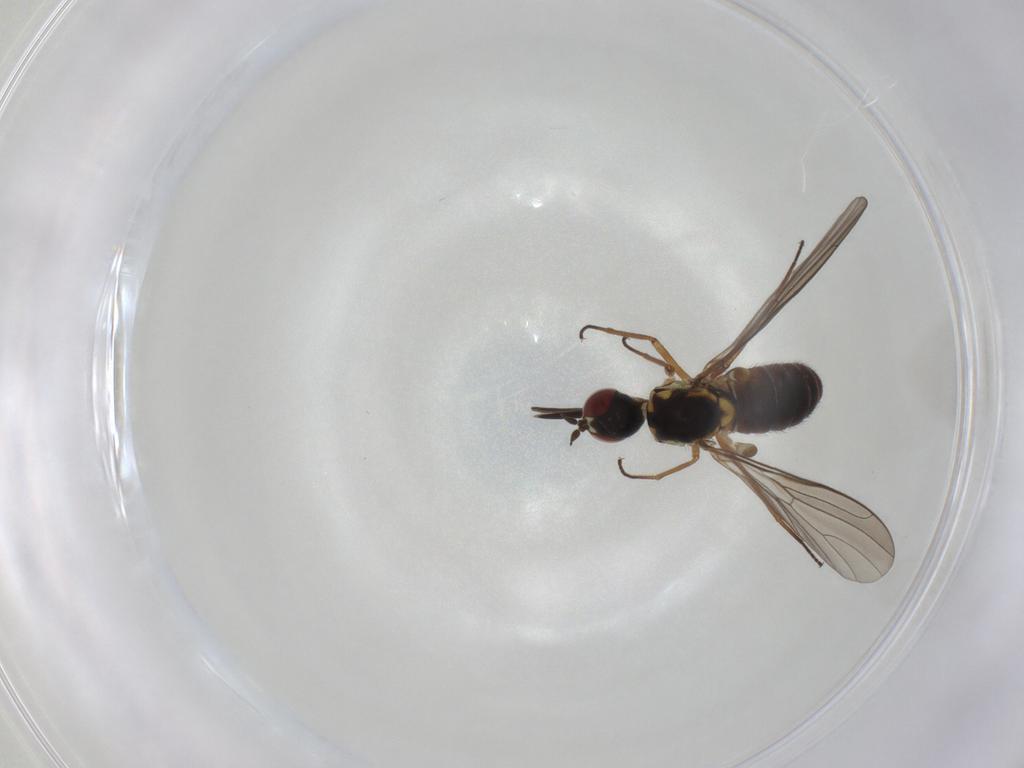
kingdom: Animalia
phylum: Arthropoda
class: Insecta
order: Diptera
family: Bombyliidae
